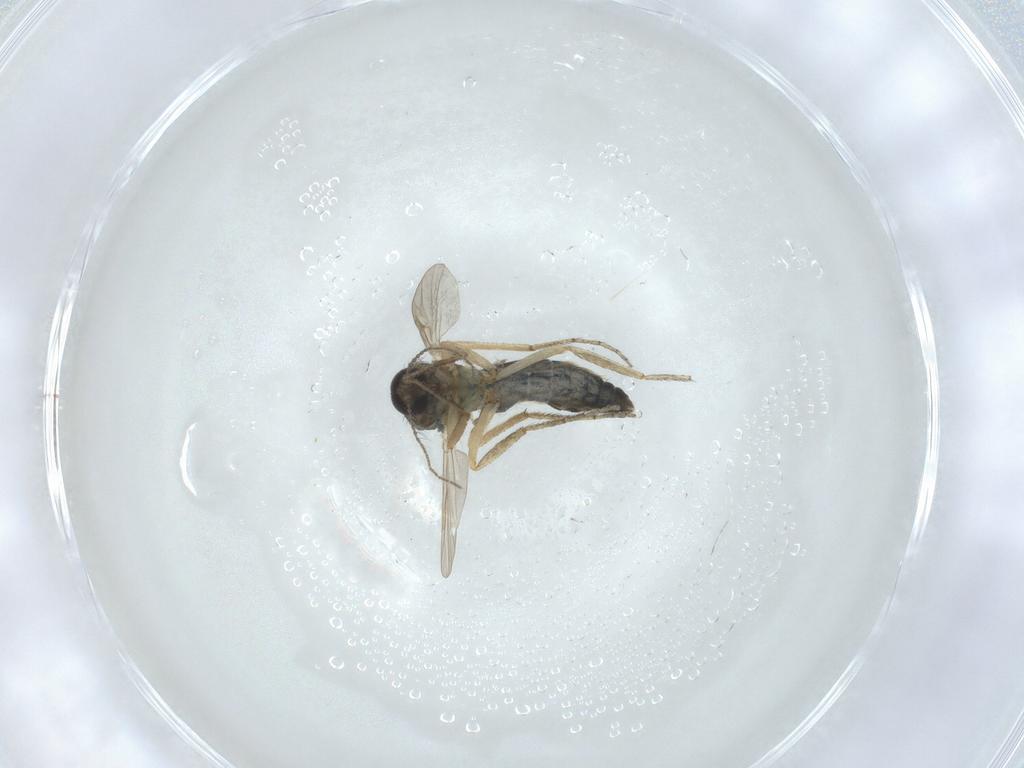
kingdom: Animalia
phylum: Arthropoda
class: Insecta
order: Diptera
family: Ceratopogonidae
